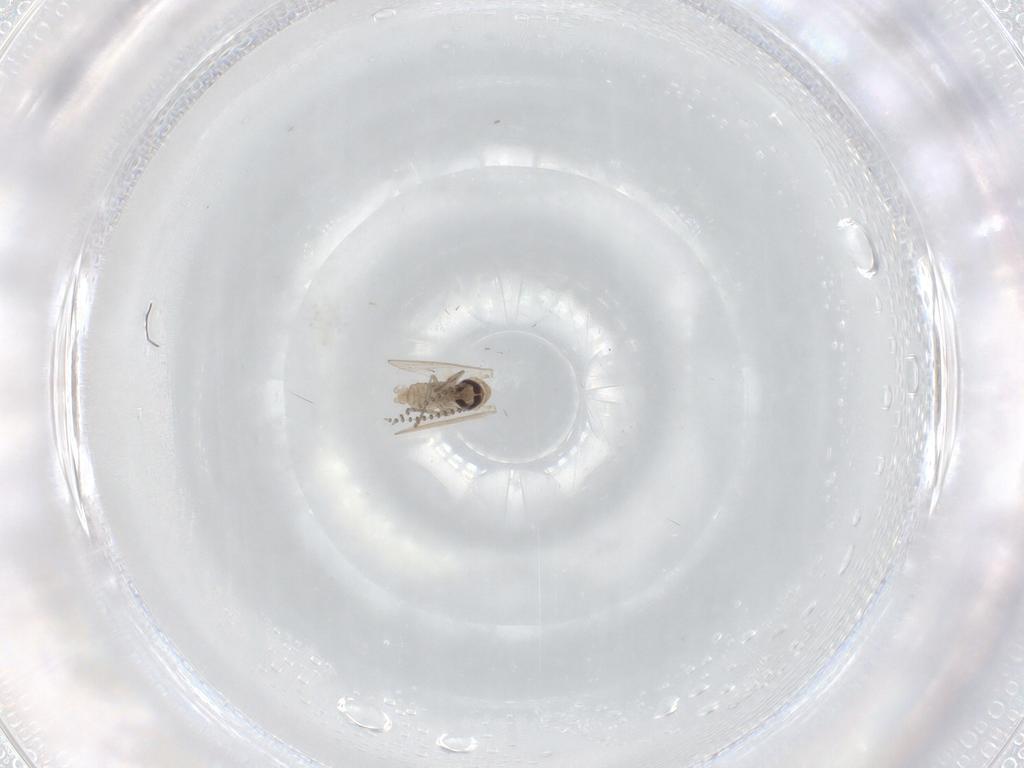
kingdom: Animalia
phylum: Arthropoda
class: Insecta
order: Diptera
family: Psychodidae
